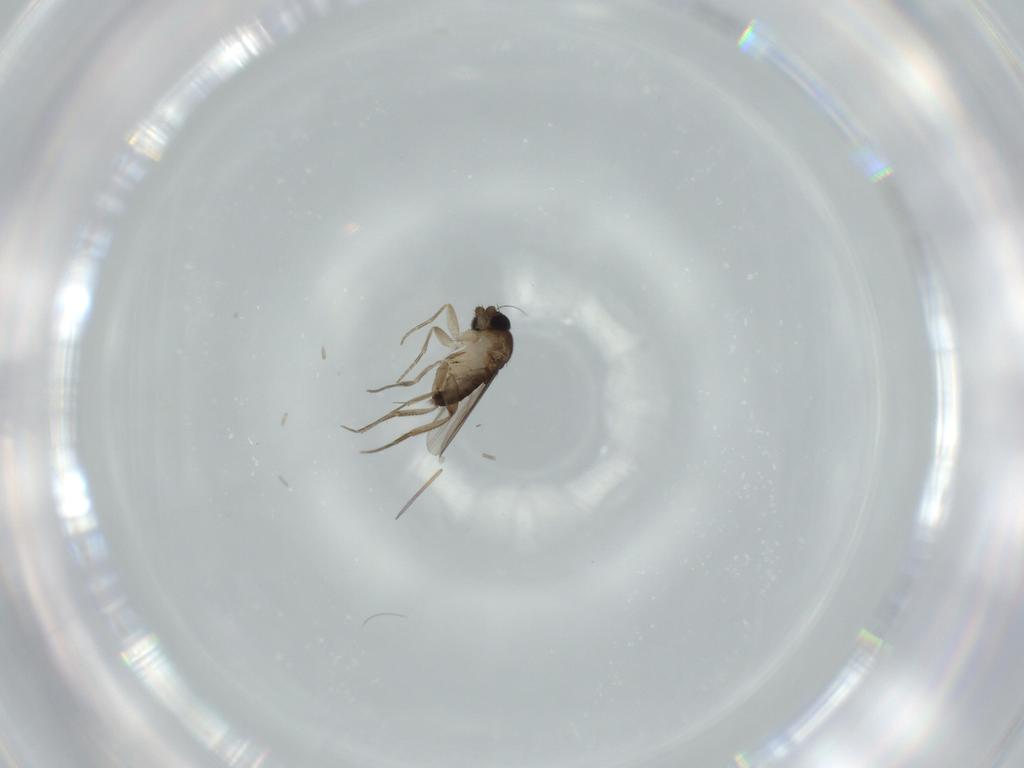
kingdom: Animalia
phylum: Arthropoda
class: Insecta
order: Diptera
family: Phoridae
